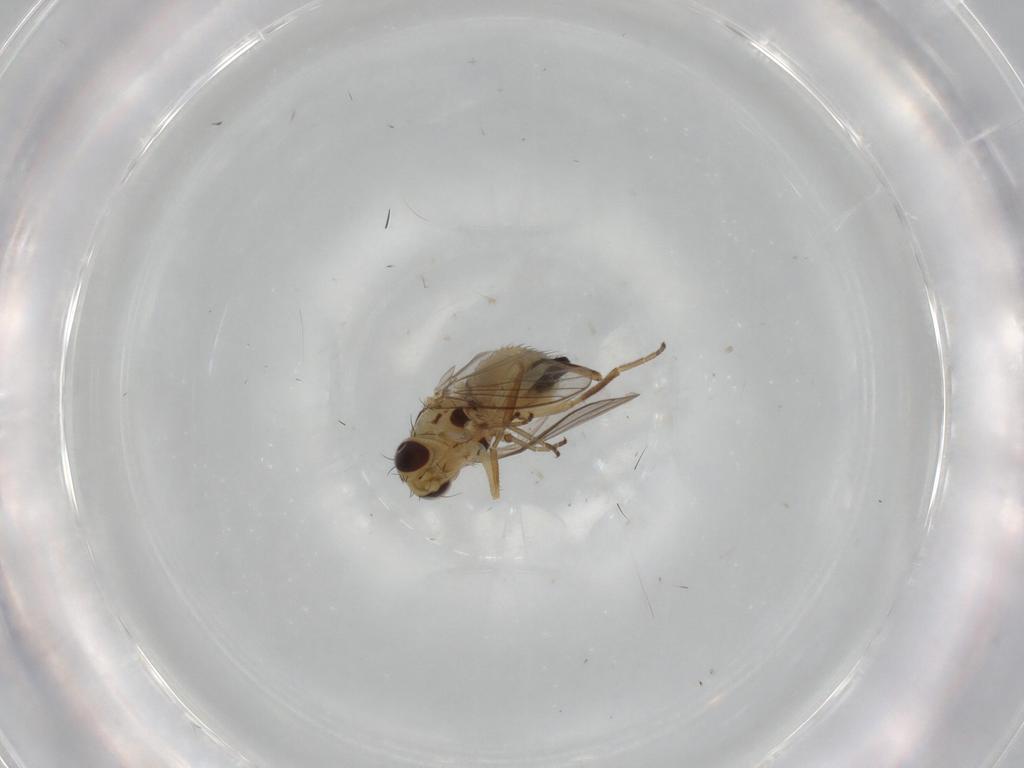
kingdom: Animalia
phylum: Arthropoda
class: Insecta
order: Diptera
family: Agromyzidae
